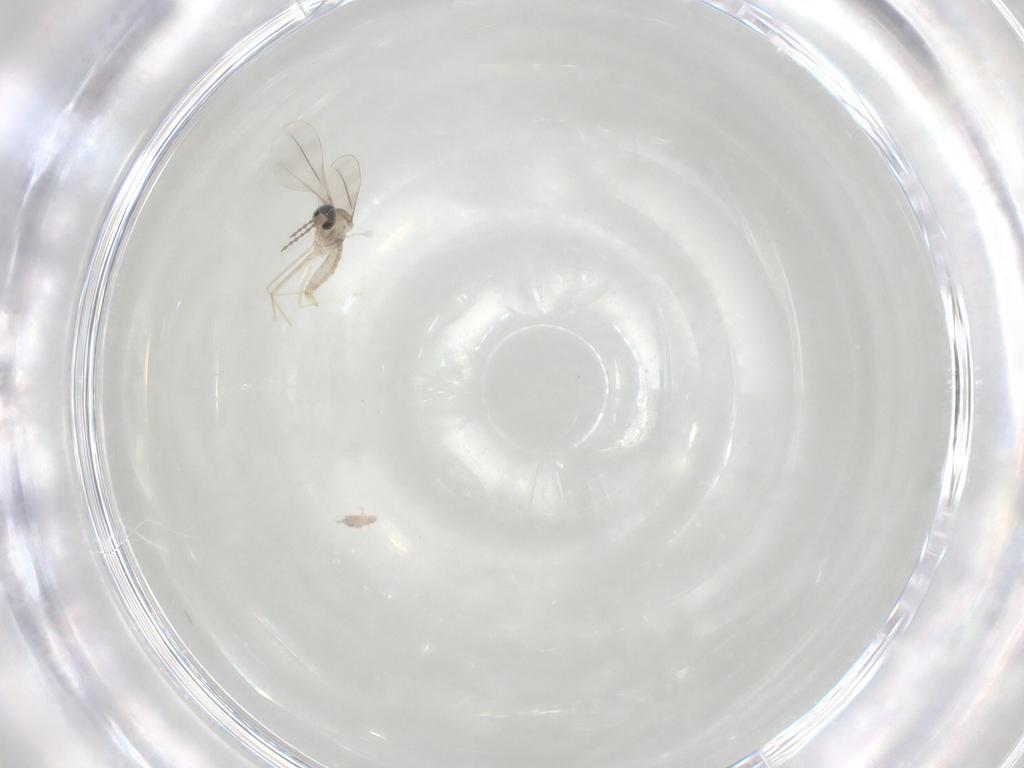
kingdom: Animalia
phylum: Arthropoda
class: Insecta
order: Diptera
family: Cecidomyiidae
